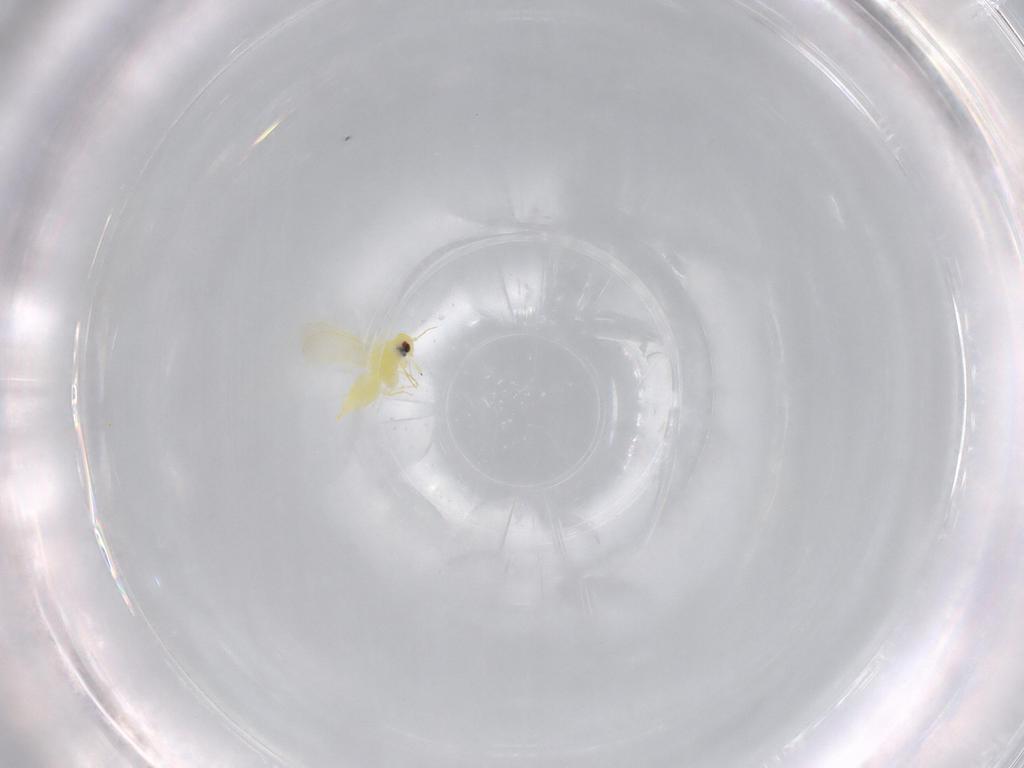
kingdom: Animalia
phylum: Arthropoda
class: Insecta
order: Hemiptera
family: Aleyrodidae
